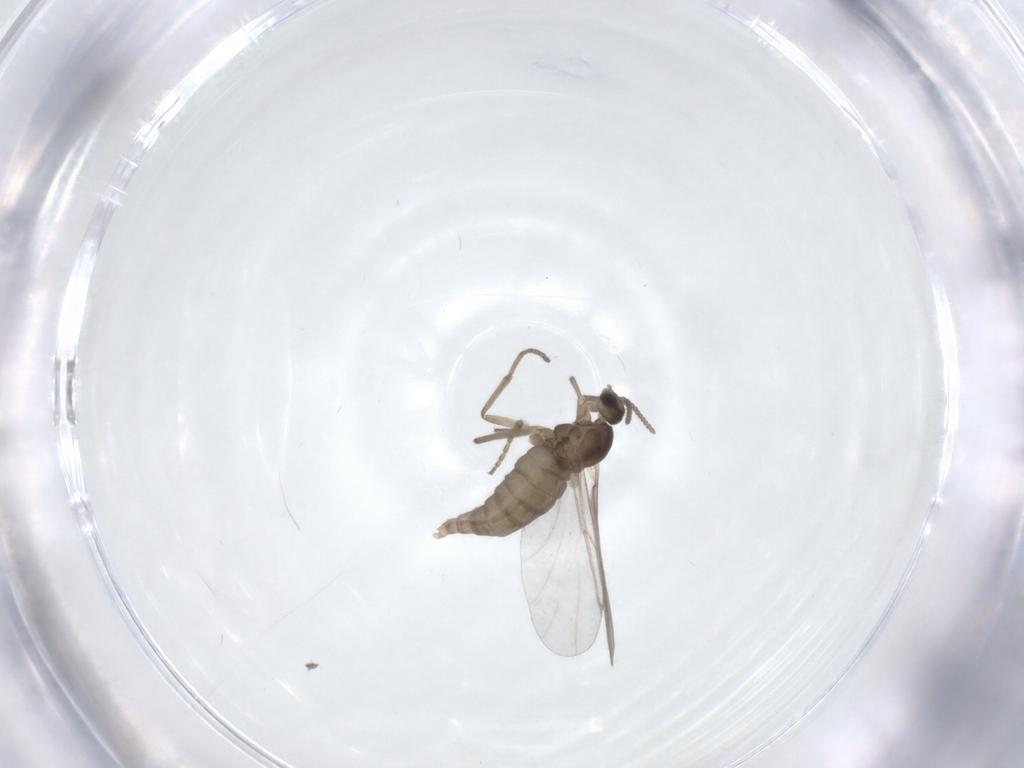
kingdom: Animalia
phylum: Arthropoda
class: Insecta
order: Diptera
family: Cecidomyiidae
